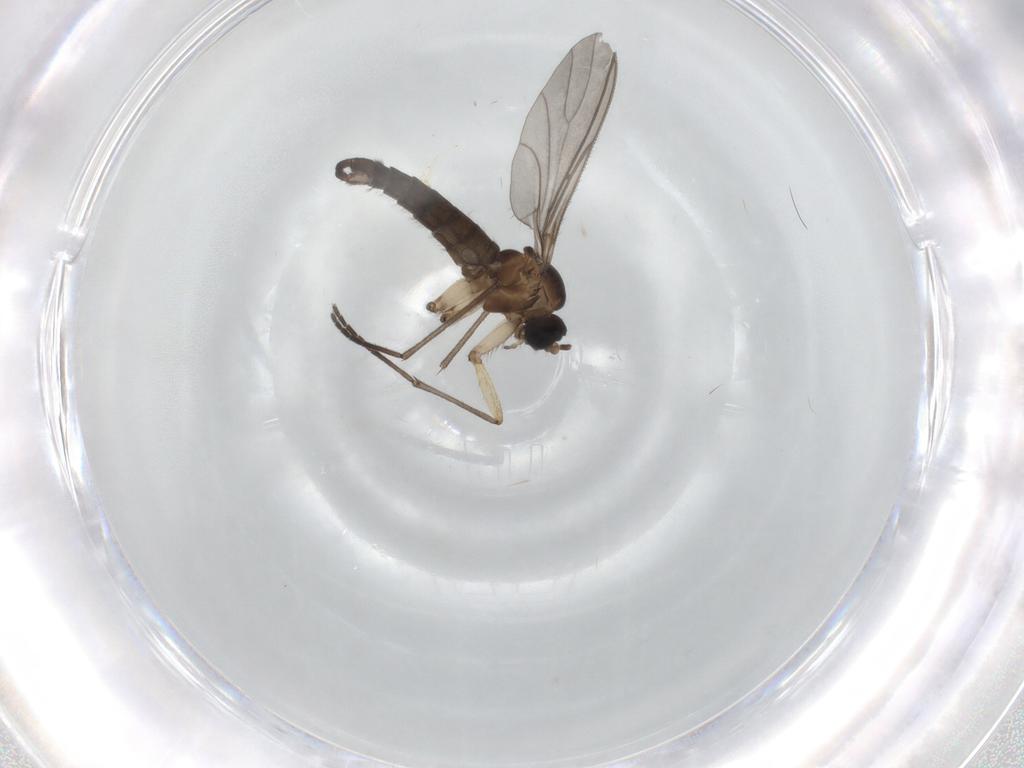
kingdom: Animalia
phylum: Arthropoda
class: Insecta
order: Diptera
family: Sciaridae
